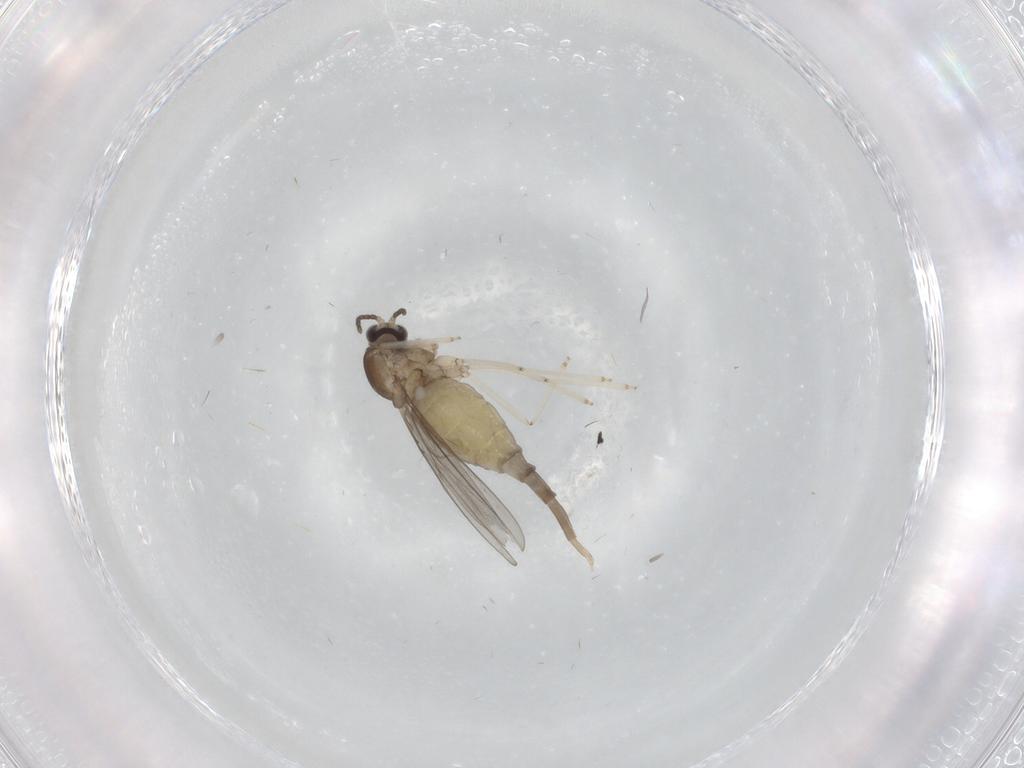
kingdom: Animalia
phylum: Arthropoda
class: Insecta
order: Diptera
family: Cecidomyiidae
